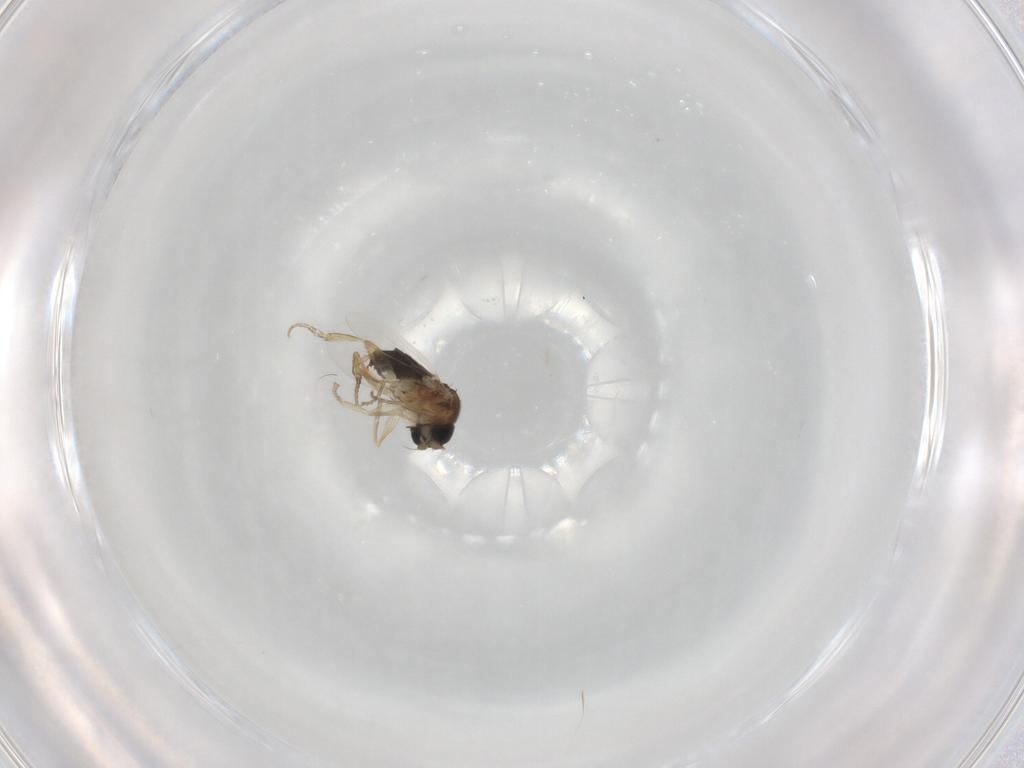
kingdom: Animalia
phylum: Arthropoda
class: Insecta
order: Diptera
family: Phoridae
